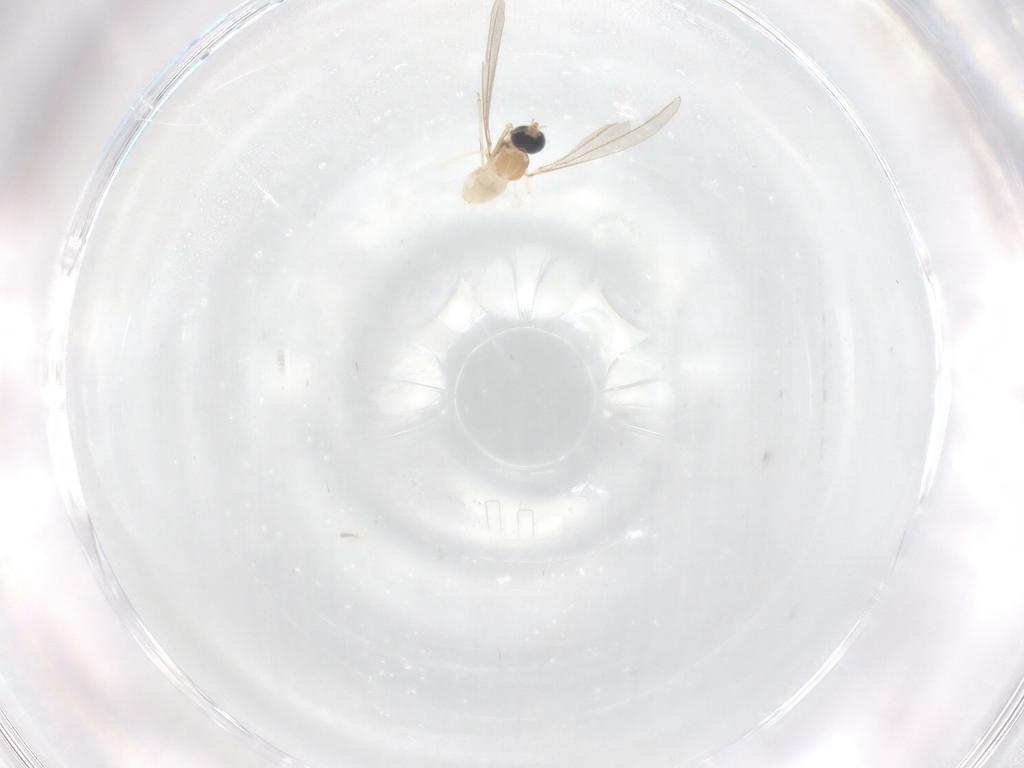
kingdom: Animalia
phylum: Arthropoda
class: Insecta
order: Diptera
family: Cecidomyiidae
